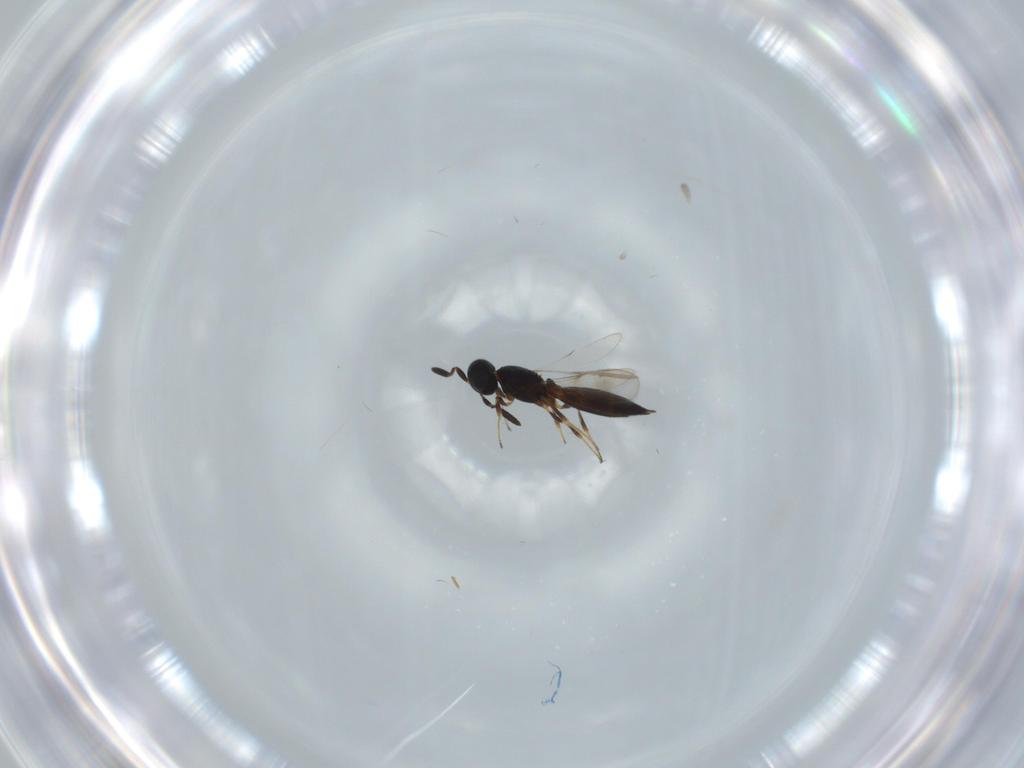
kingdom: Animalia
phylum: Arthropoda
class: Arachnida
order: Araneae
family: Pholcidae
